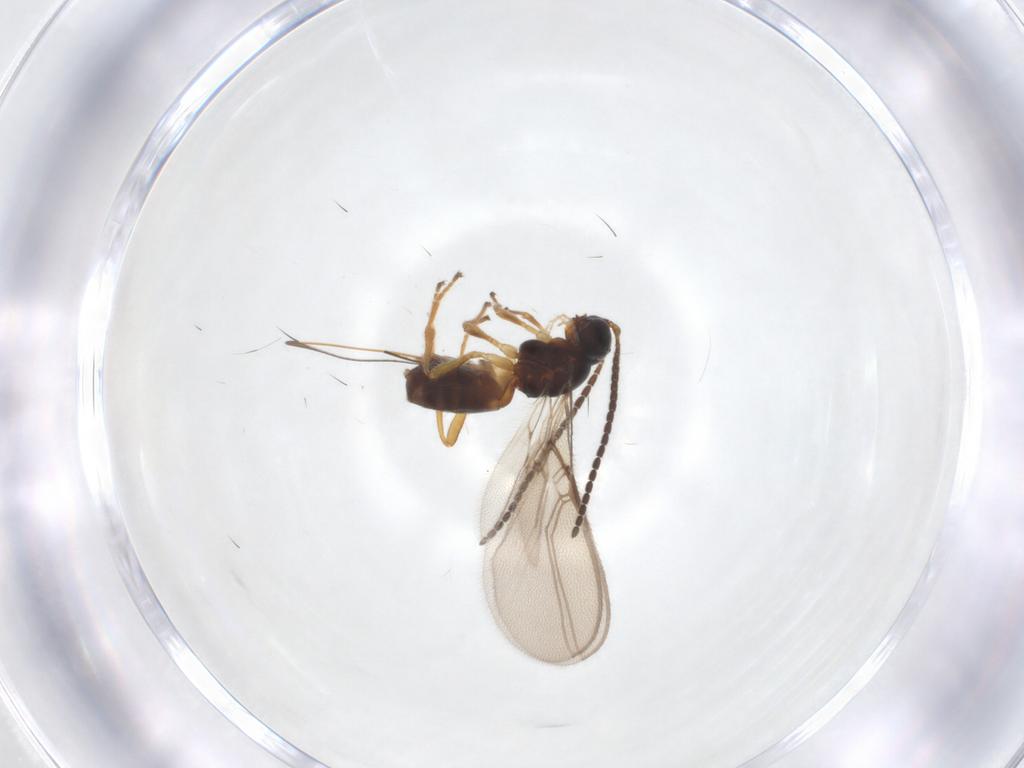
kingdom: Animalia
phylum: Arthropoda
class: Insecta
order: Hymenoptera
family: Braconidae
